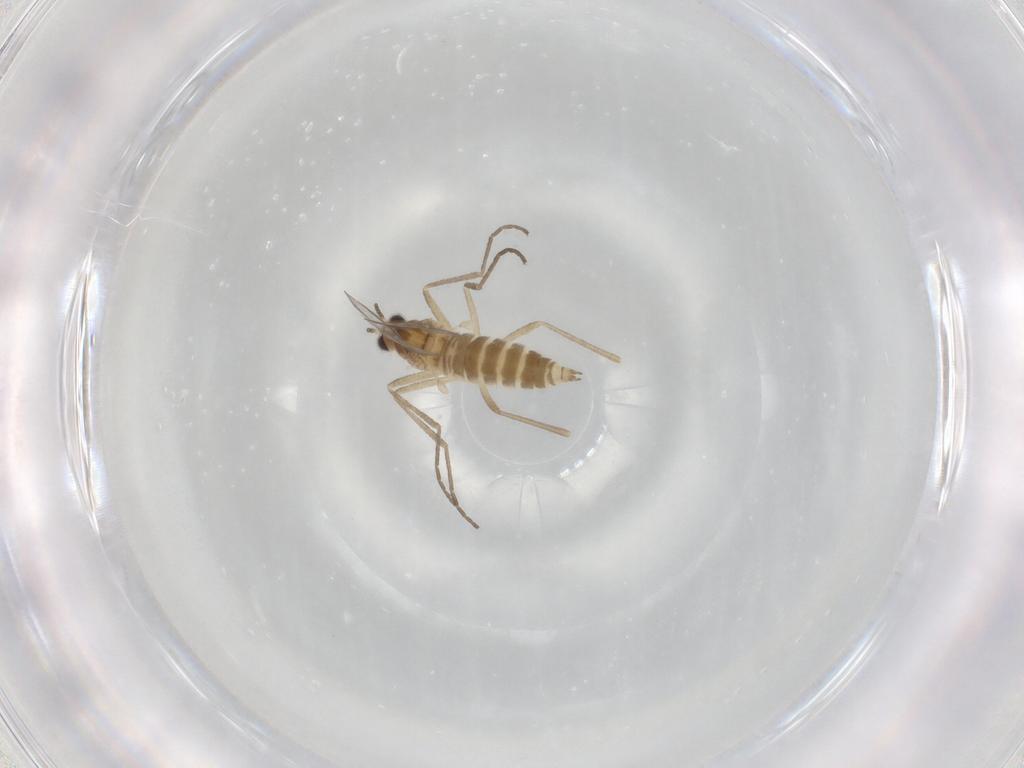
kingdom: Animalia
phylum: Arthropoda
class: Insecta
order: Diptera
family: Cecidomyiidae
